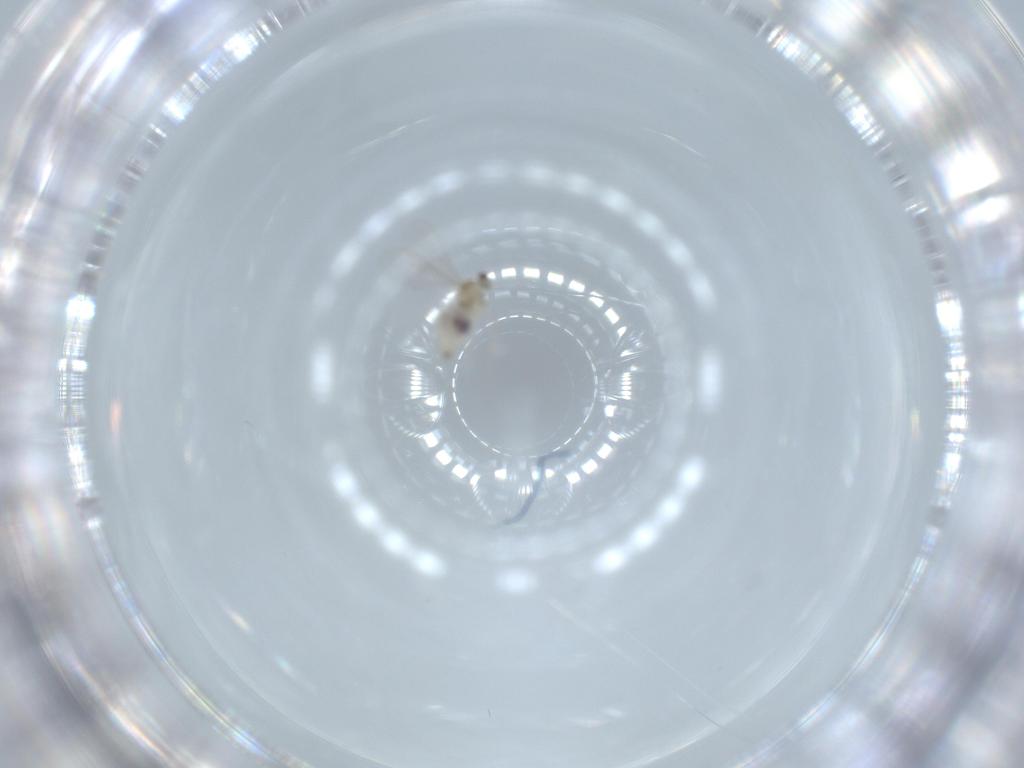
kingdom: Animalia
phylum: Arthropoda
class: Insecta
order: Diptera
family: Cecidomyiidae
